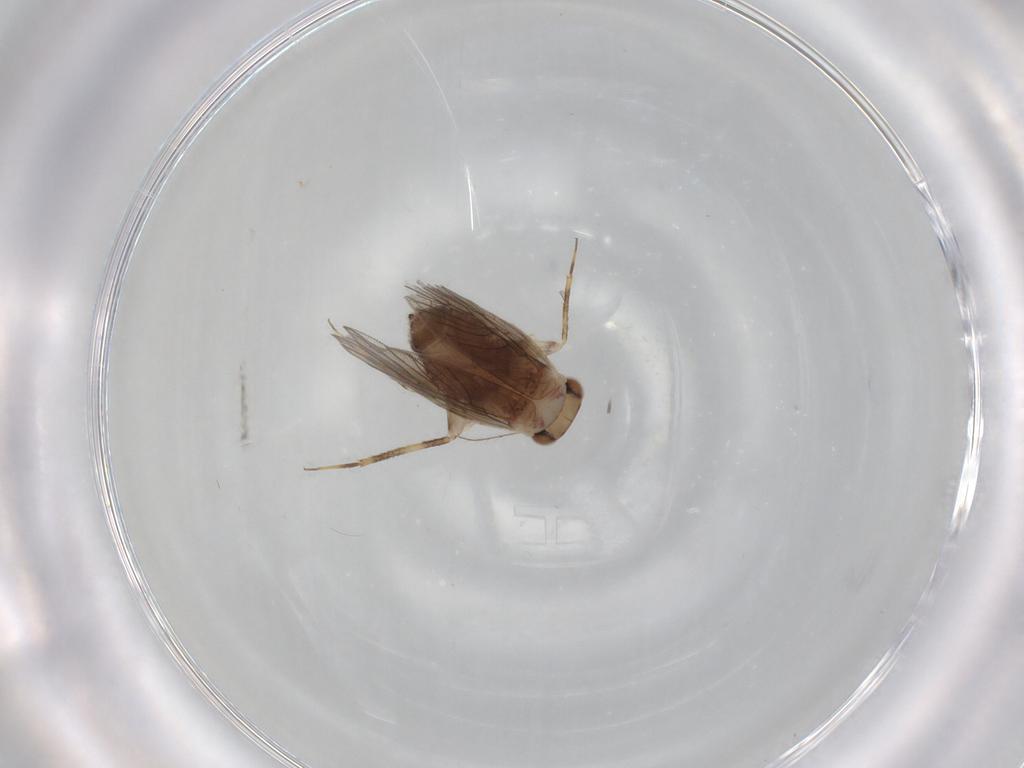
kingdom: Animalia
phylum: Arthropoda
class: Insecta
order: Psocodea
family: Lepidopsocidae
